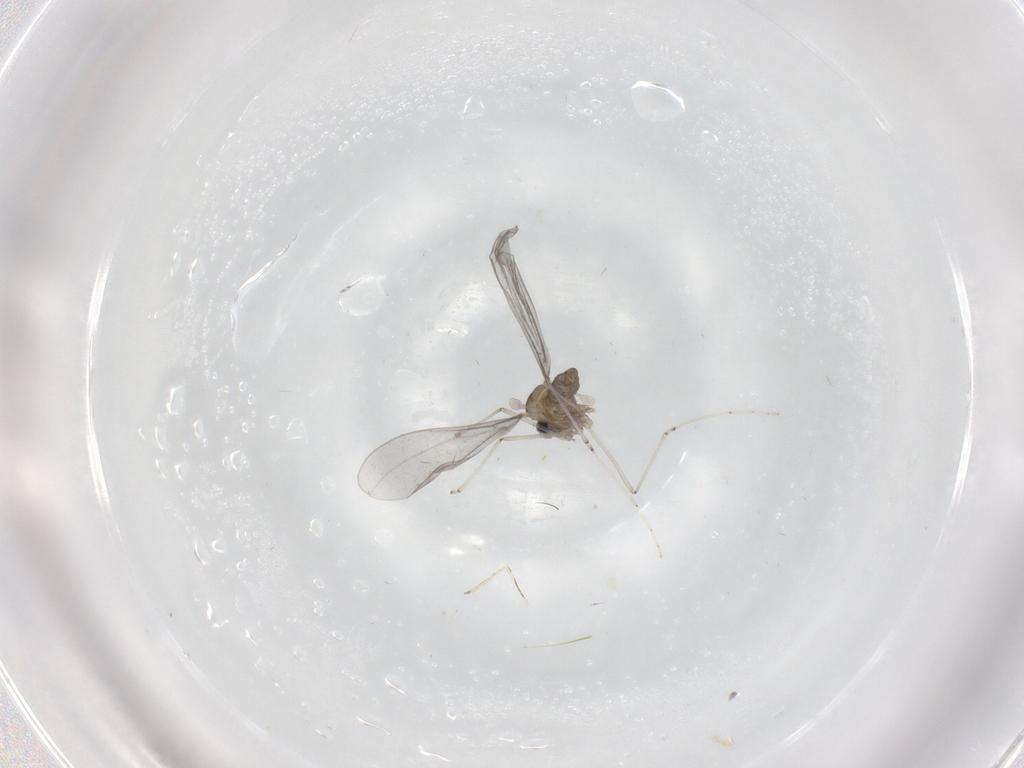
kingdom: Animalia
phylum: Arthropoda
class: Insecta
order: Diptera
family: Cecidomyiidae
